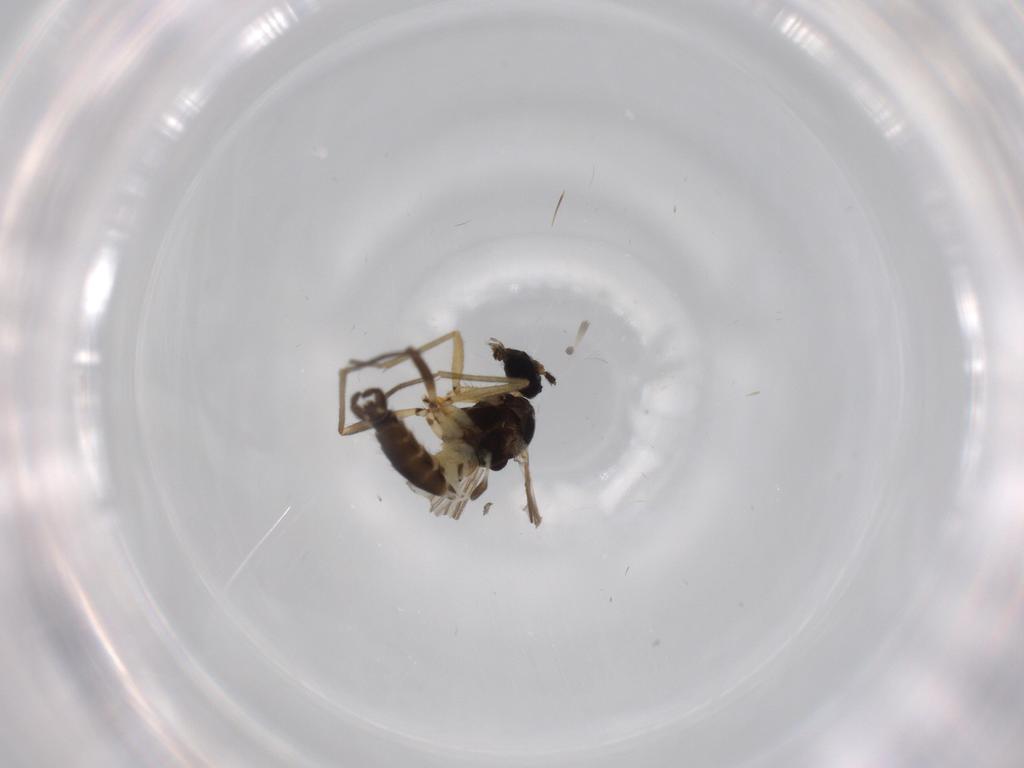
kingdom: Animalia
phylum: Arthropoda
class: Insecta
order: Diptera
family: Sciaridae
